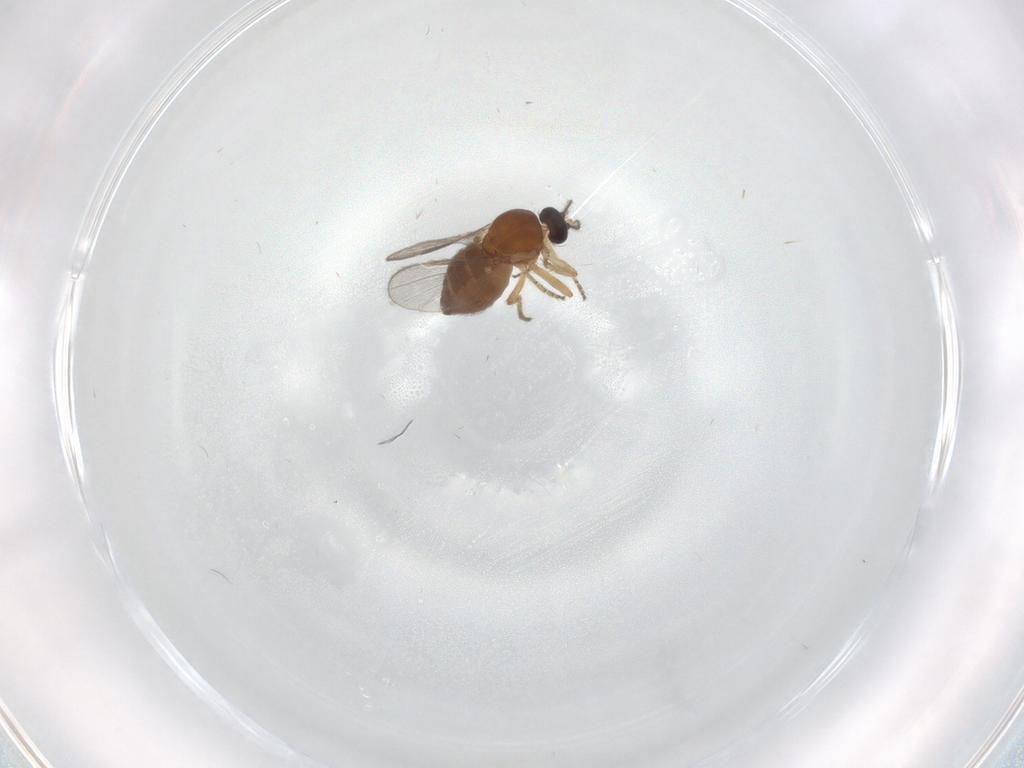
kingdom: Animalia
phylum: Arthropoda
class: Insecta
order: Diptera
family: Ceratopogonidae
